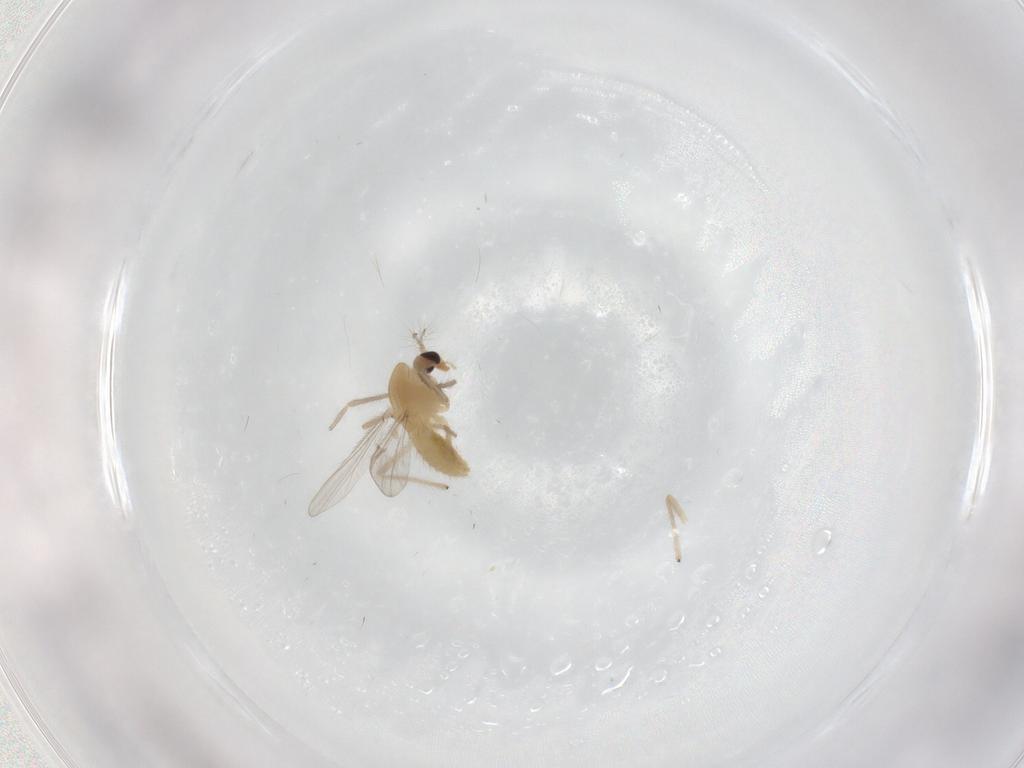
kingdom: Animalia
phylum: Arthropoda
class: Insecta
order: Diptera
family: Chironomidae
